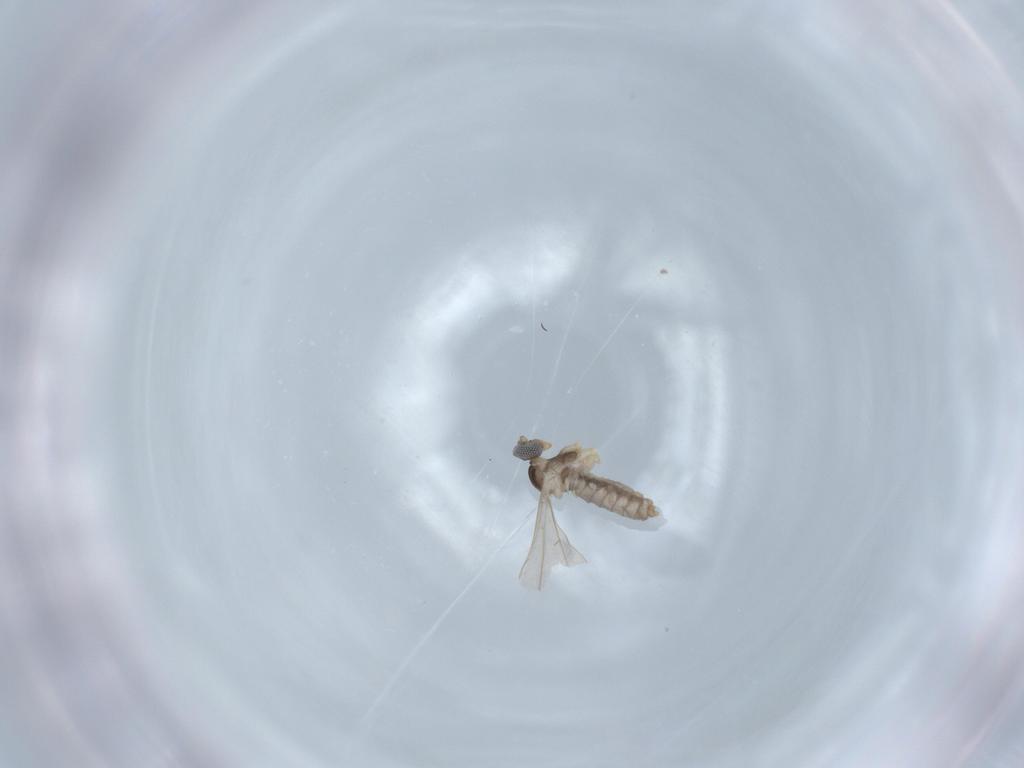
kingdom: Animalia
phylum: Arthropoda
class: Insecta
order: Diptera
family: Cecidomyiidae
